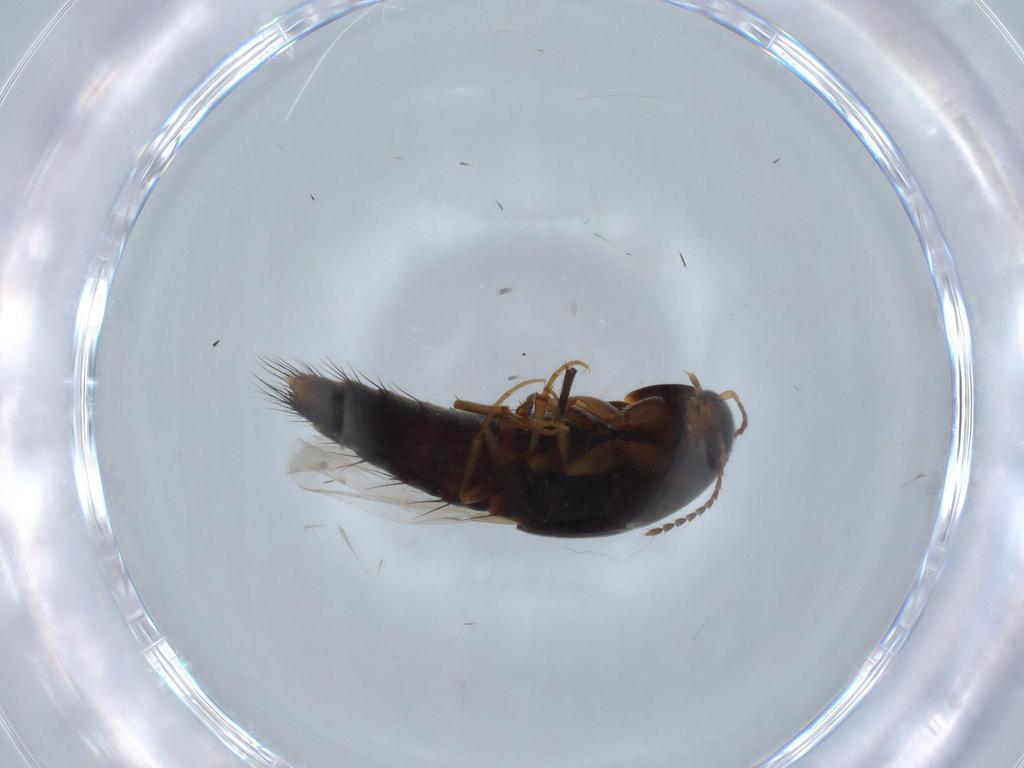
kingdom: Animalia
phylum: Arthropoda
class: Insecta
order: Coleoptera
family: Staphylinidae
